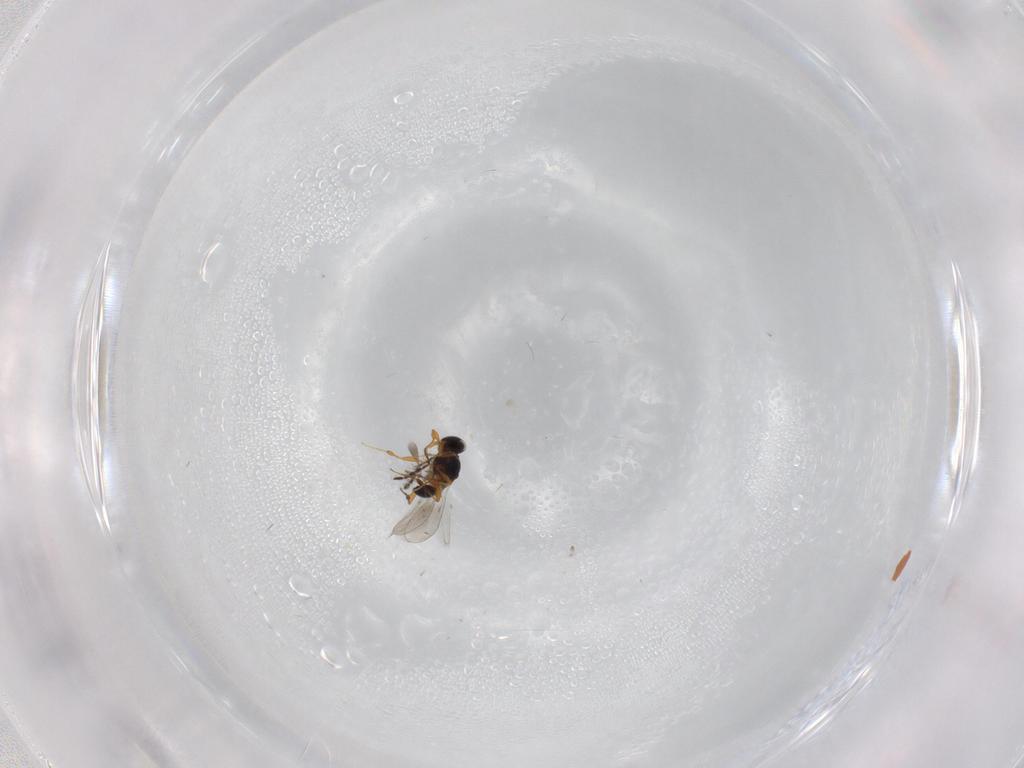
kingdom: Animalia
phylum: Arthropoda
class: Insecta
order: Hymenoptera
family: Platygastridae
